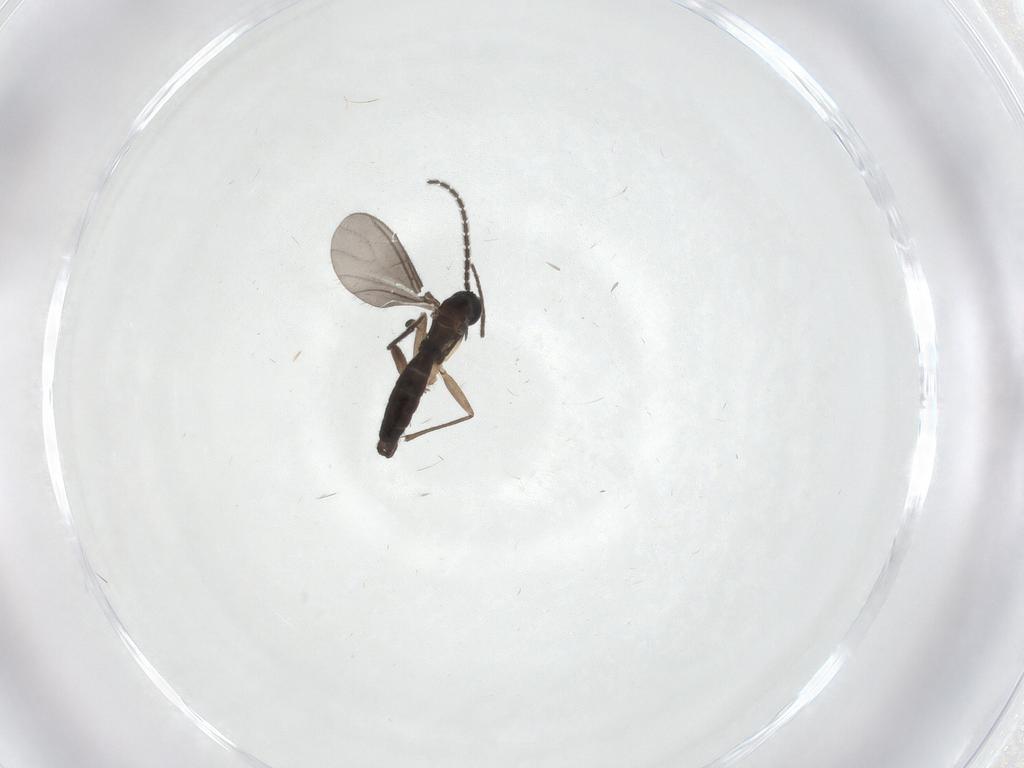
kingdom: Animalia
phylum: Arthropoda
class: Insecta
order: Diptera
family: Sciaridae
